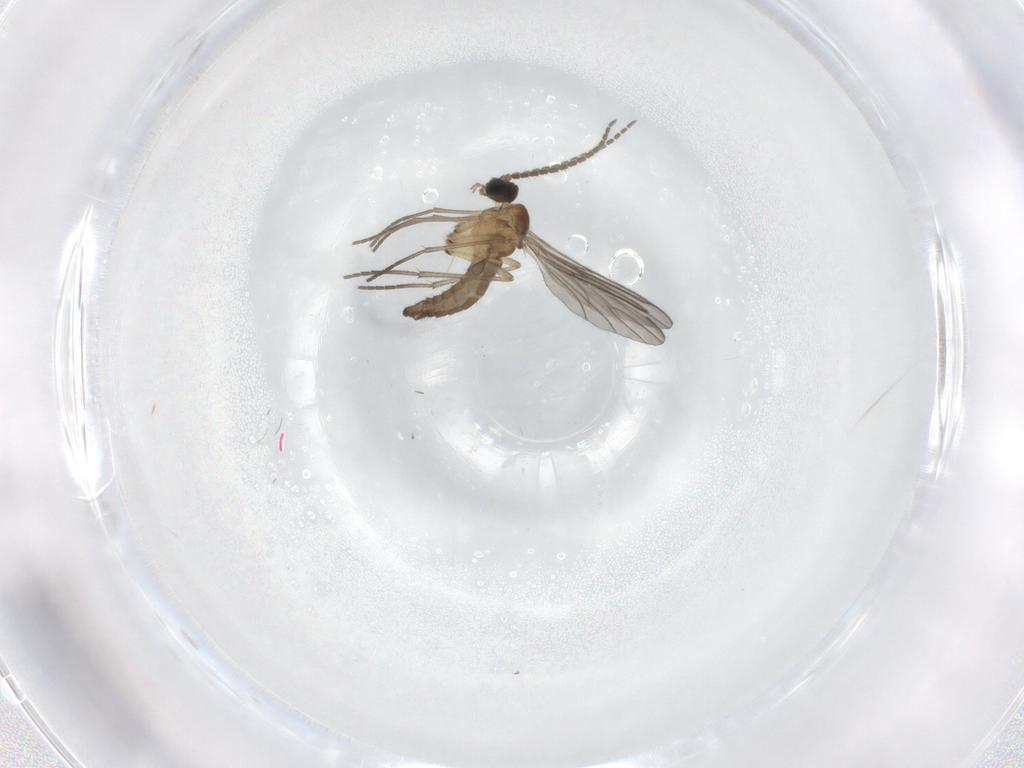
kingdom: Animalia
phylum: Arthropoda
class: Insecta
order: Diptera
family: Sciaridae
